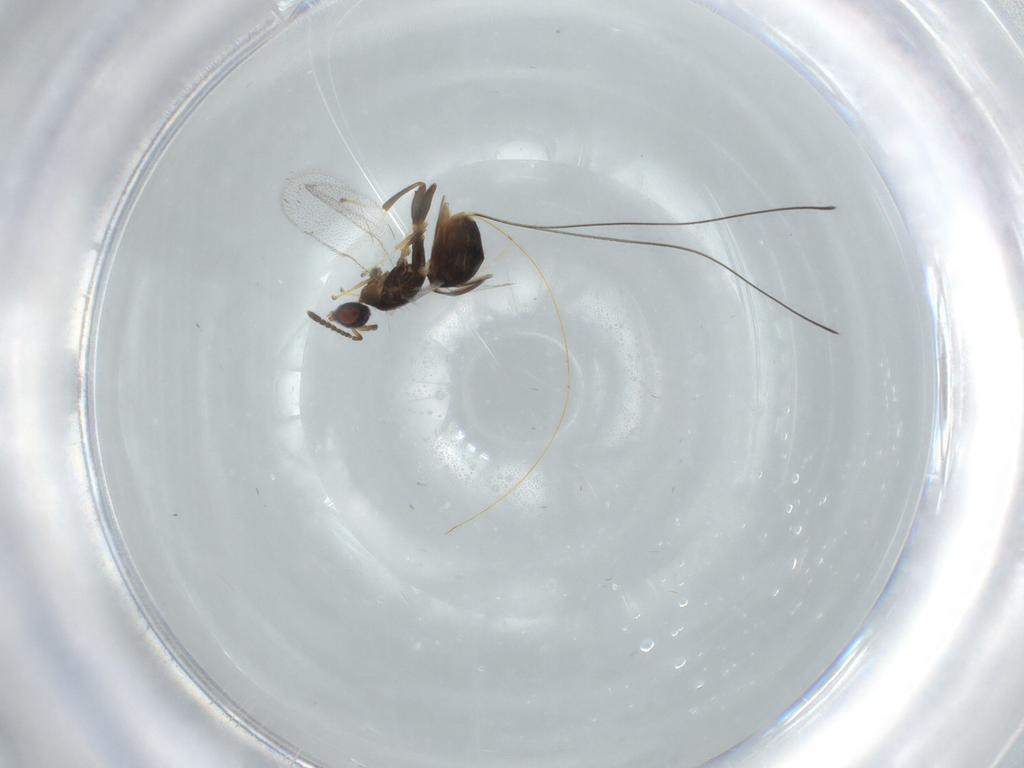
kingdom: Animalia
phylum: Arthropoda
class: Insecta
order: Hymenoptera
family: Torymidae
